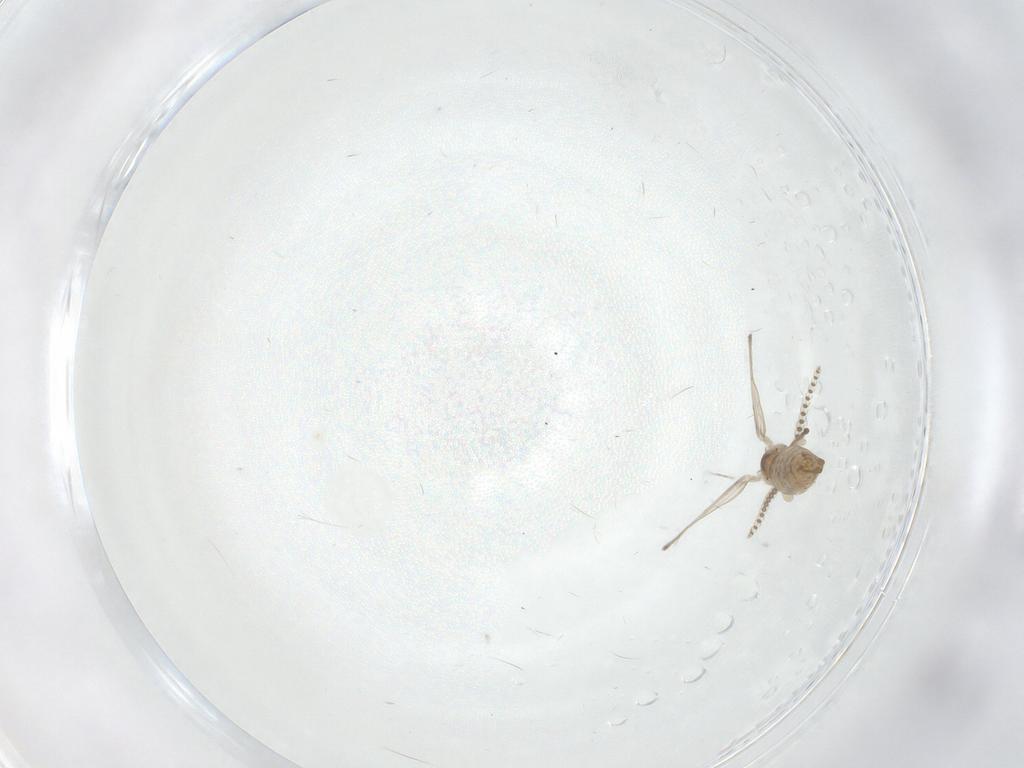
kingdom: Animalia
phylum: Arthropoda
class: Insecta
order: Diptera
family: Psychodidae
